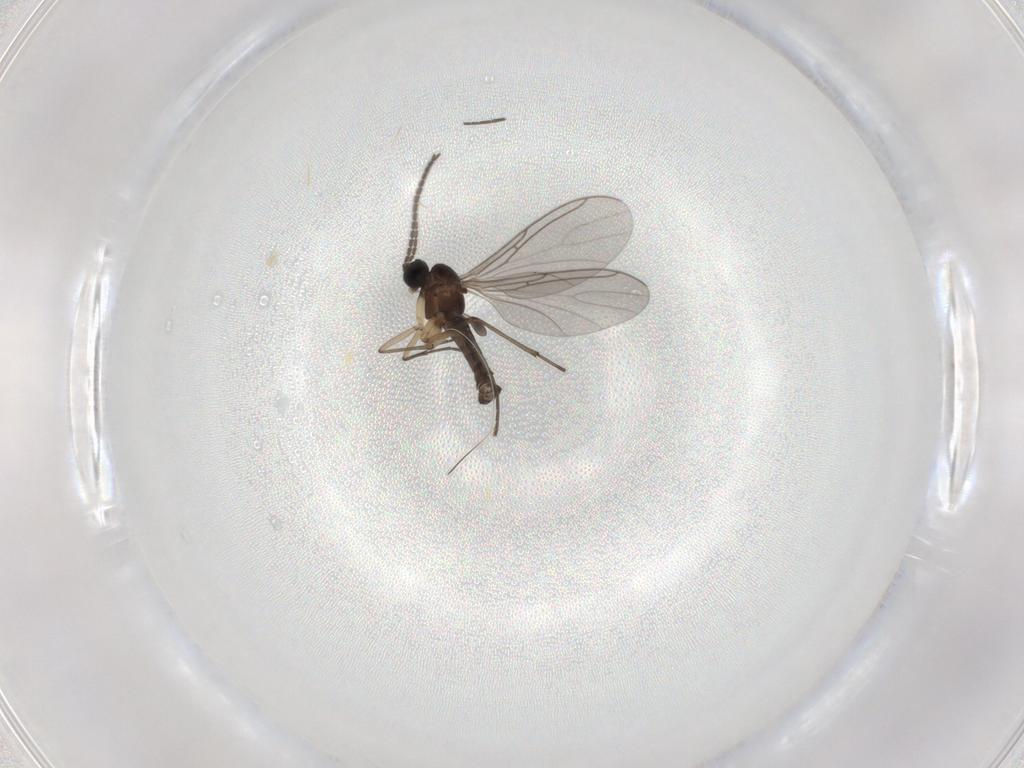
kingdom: Animalia
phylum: Arthropoda
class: Insecta
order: Diptera
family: Sciaridae
